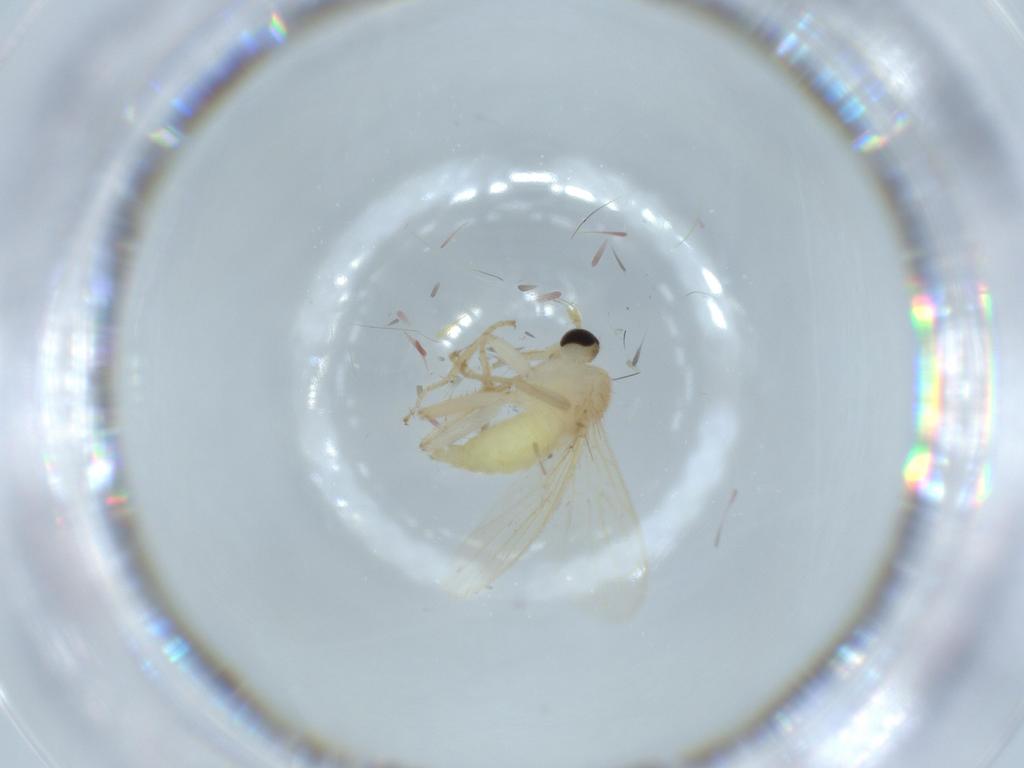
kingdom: Animalia
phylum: Arthropoda
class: Insecta
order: Diptera
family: Hybotidae
